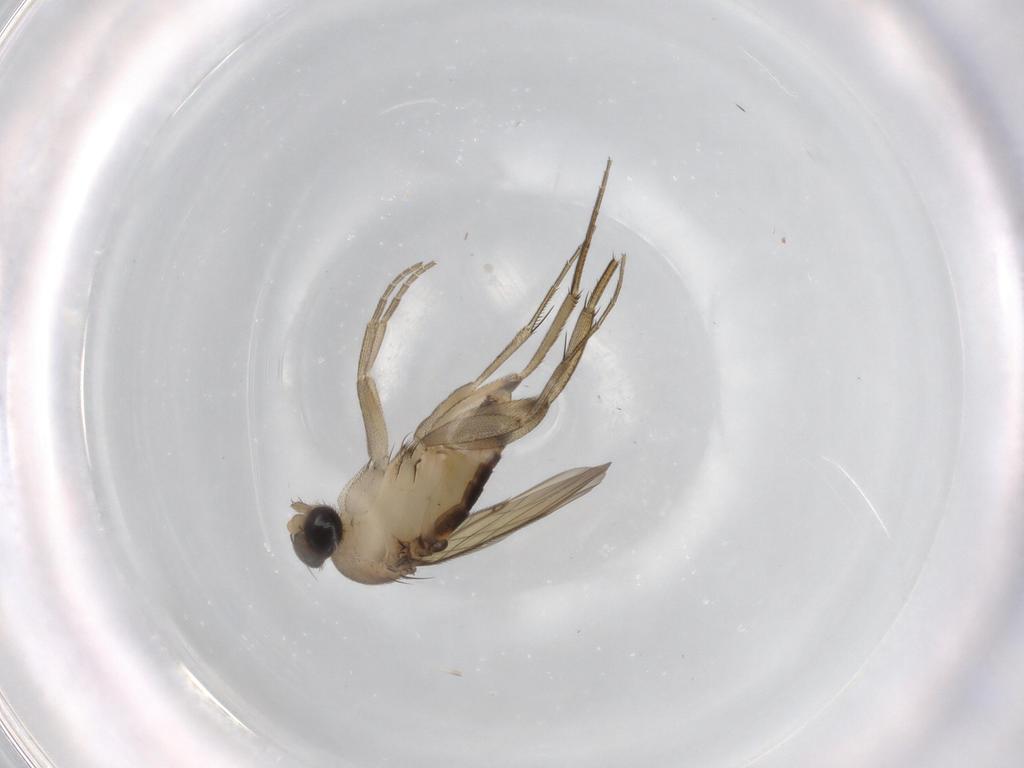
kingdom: Animalia
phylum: Arthropoda
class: Insecta
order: Diptera
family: Phoridae
